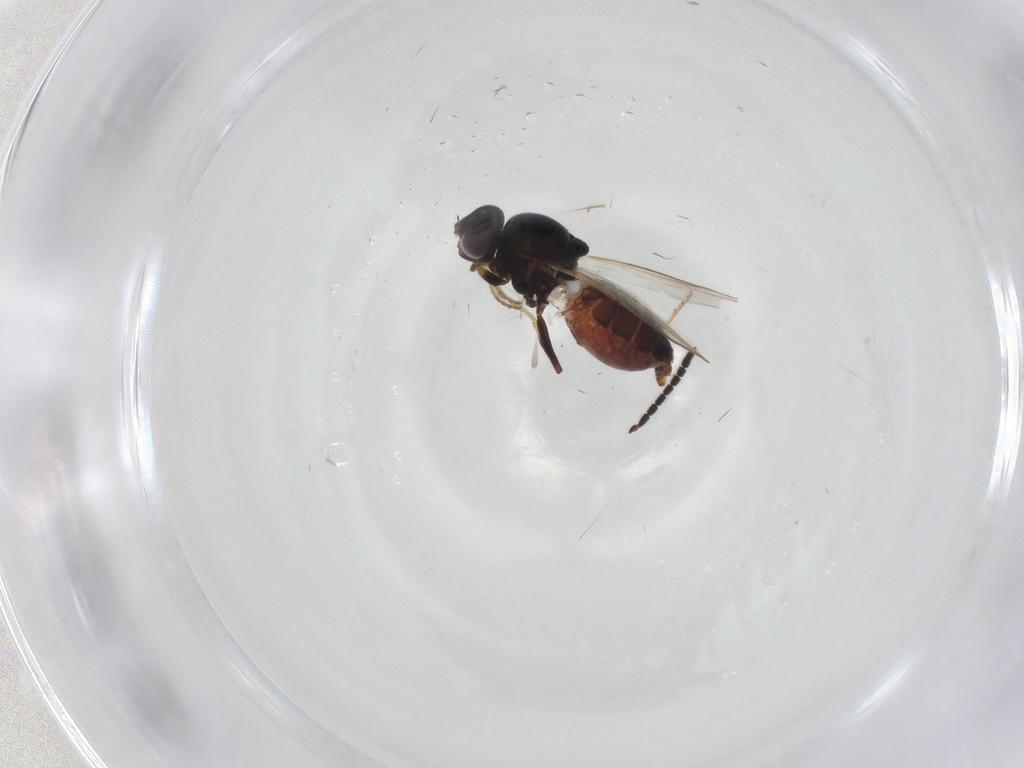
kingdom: Animalia
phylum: Arthropoda
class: Insecta
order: Diptera
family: Chloropidae
